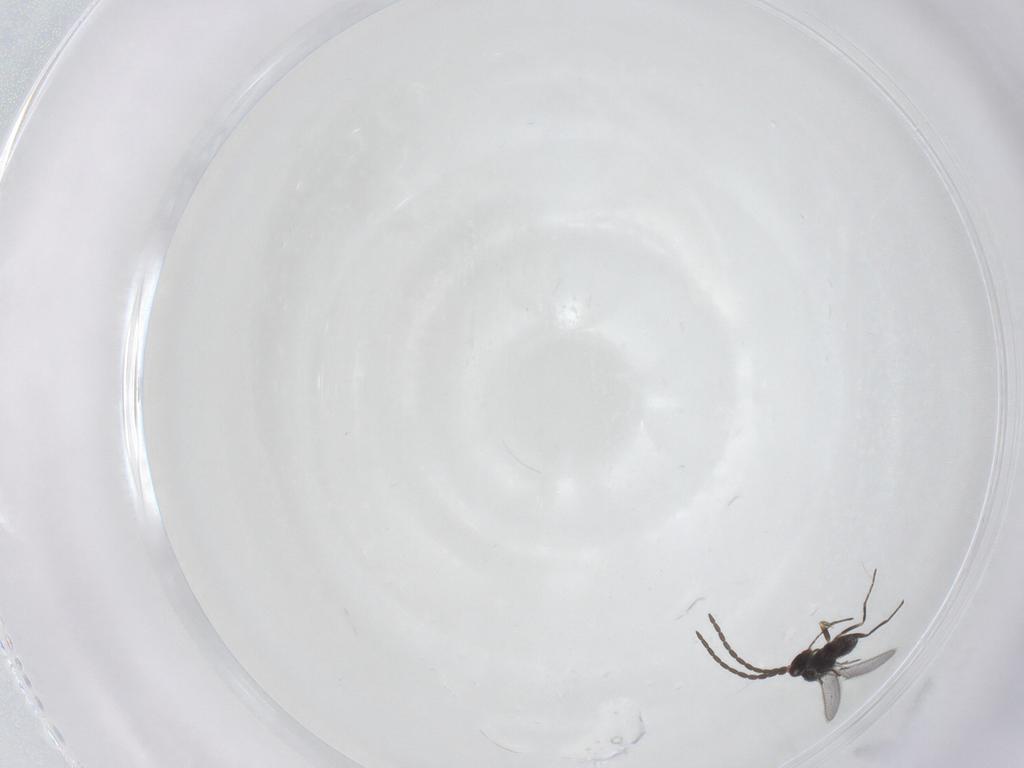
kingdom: Animalia
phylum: Arthropoda
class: Insecta
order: Hymenoptera
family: Mymaridae
